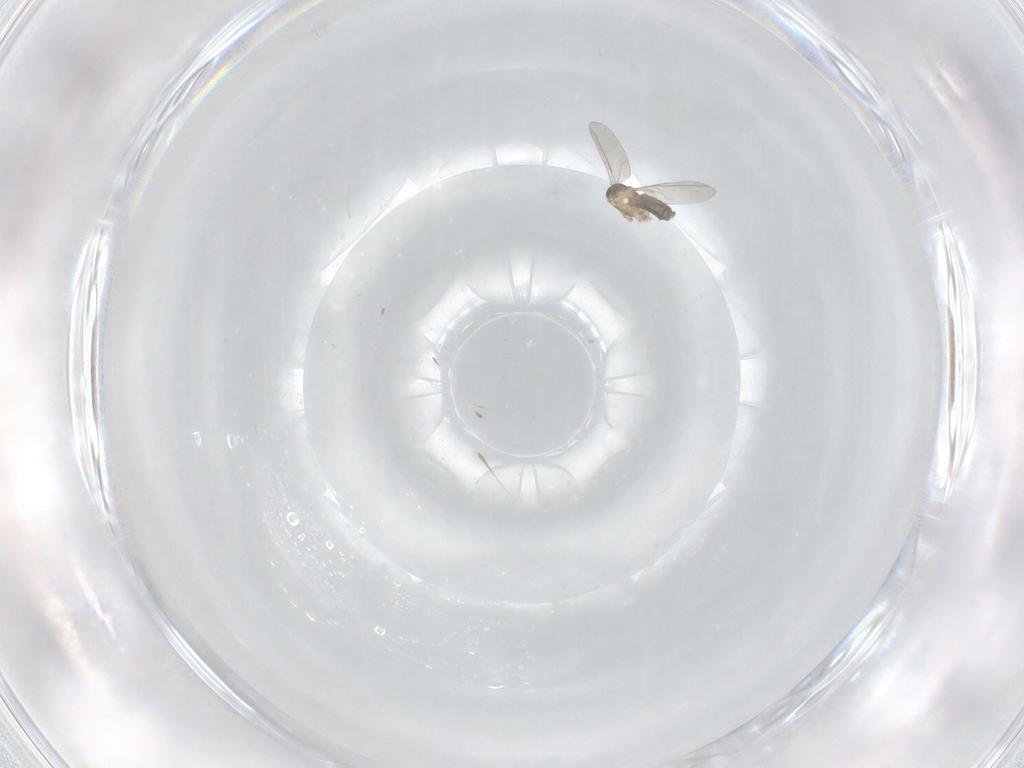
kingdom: Animalia
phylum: Arthropoda
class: Insecta
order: Diptera
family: Cecidomyiidae
